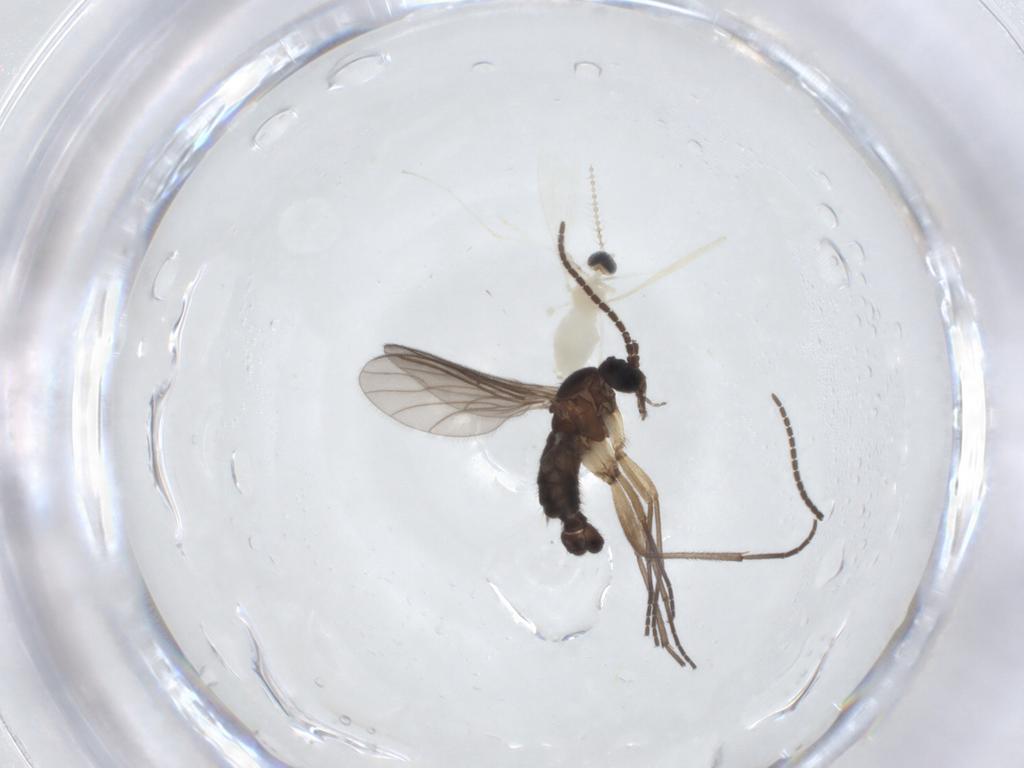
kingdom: Animalia
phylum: Arthropoda
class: Insecta
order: Diptera
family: Cecidomyiidae
